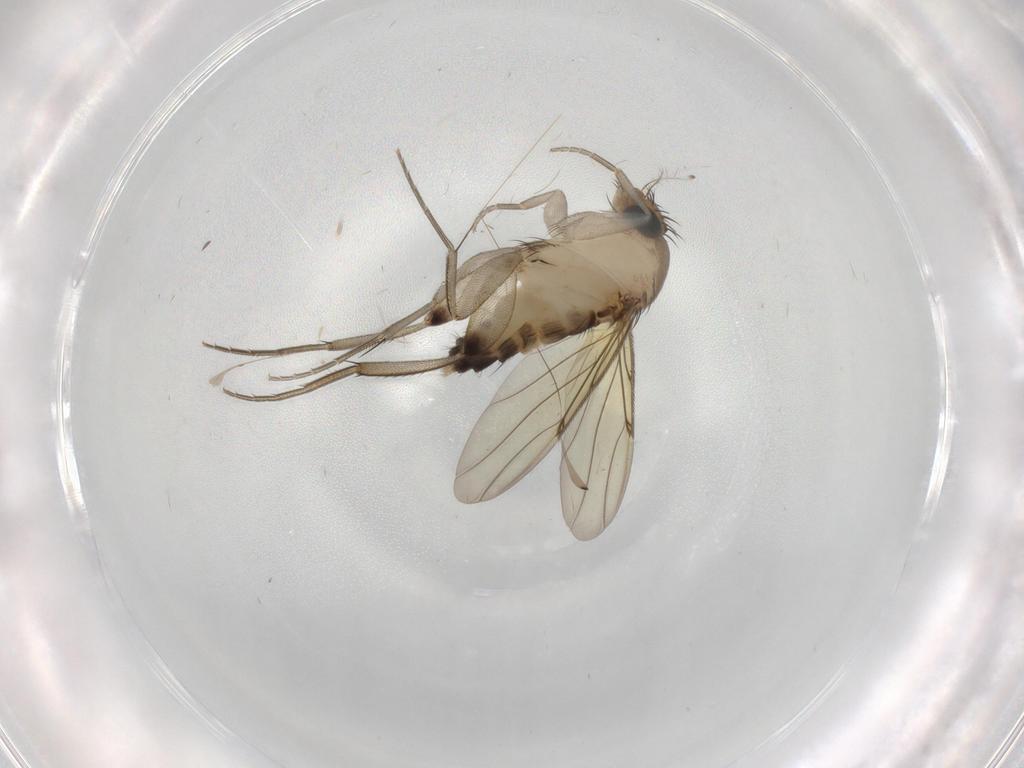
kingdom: Animalia
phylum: Arthropoda
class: Insecta
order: Diptera
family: Phoridae
